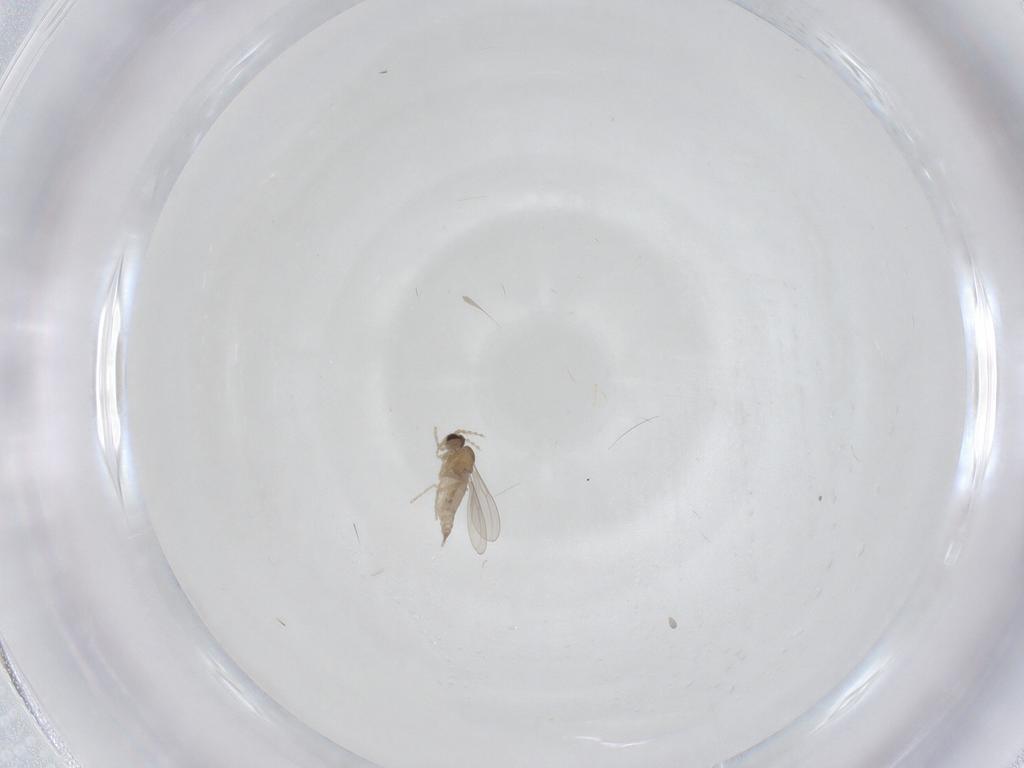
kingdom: Animalia
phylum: Arthropoda
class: Insecta
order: Diptera
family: Cecidomyiidae
